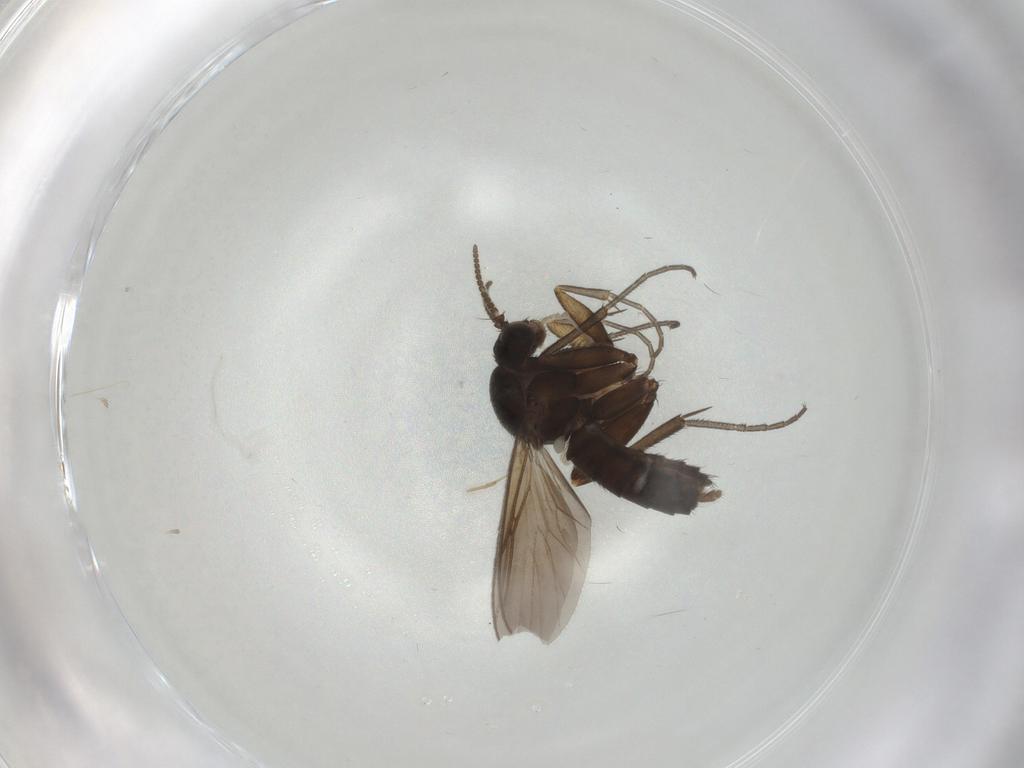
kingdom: Animalia
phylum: Arthropoda
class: Insecta
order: Diptera
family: Cecidomyiidae
